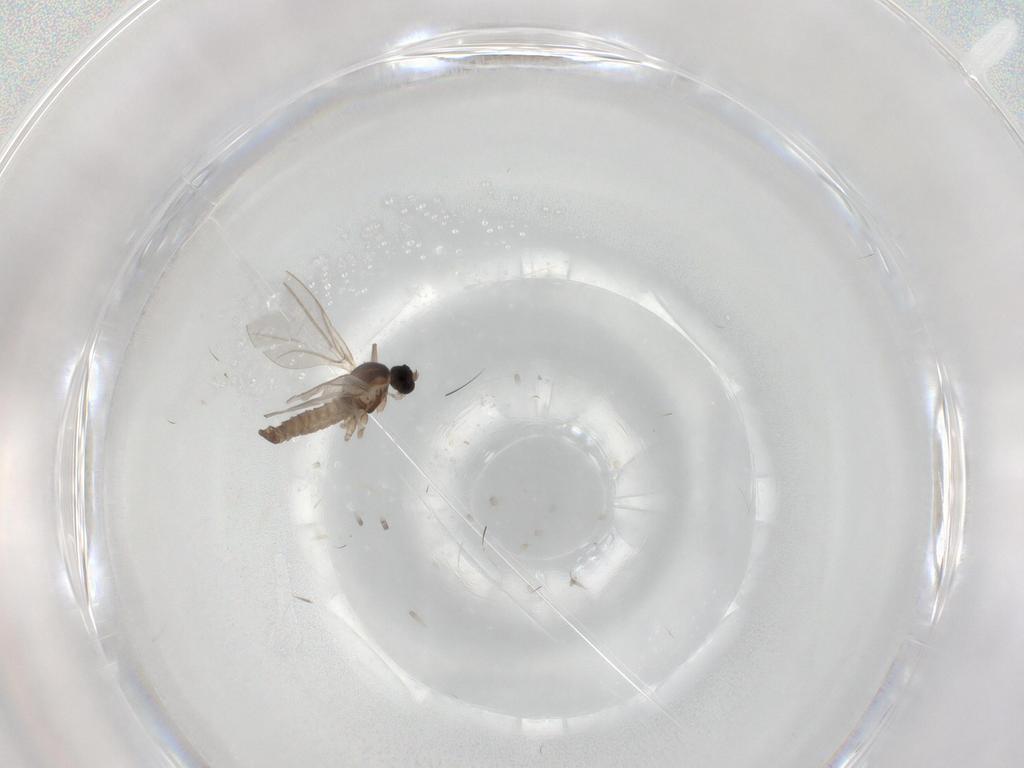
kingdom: Animalia
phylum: Arthropoda
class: Insecta
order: Diptera
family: Cecidomyiidae
